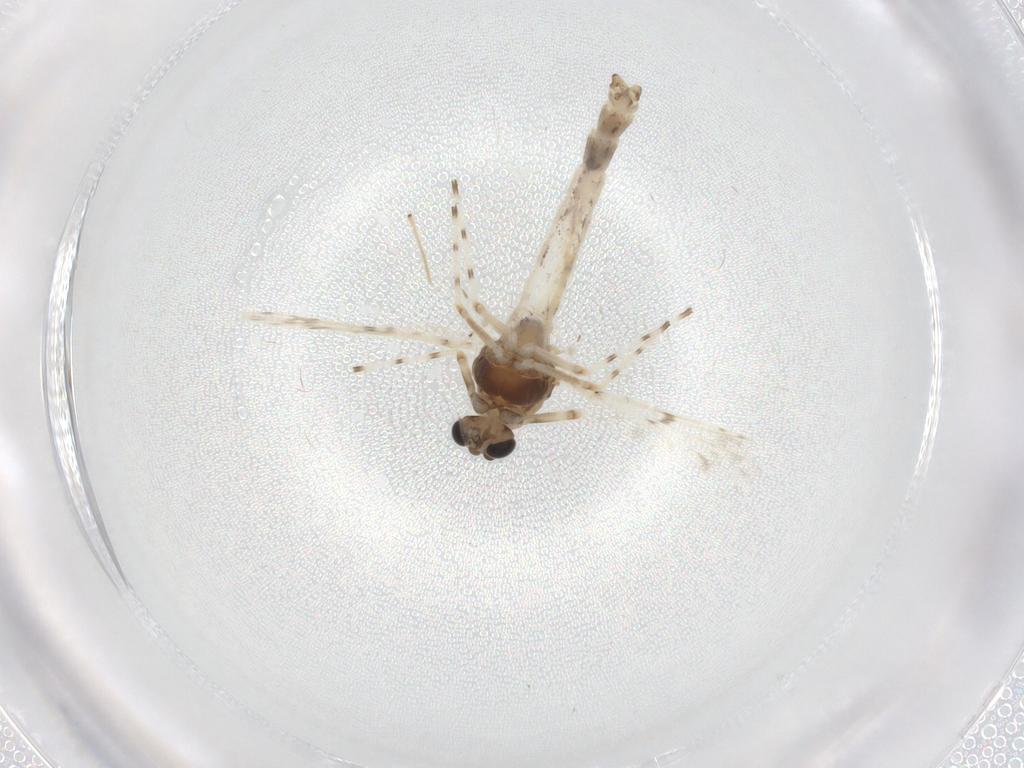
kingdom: Animalia
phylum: Arthropoda
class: Insecta
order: Diptera
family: Chironomidae
